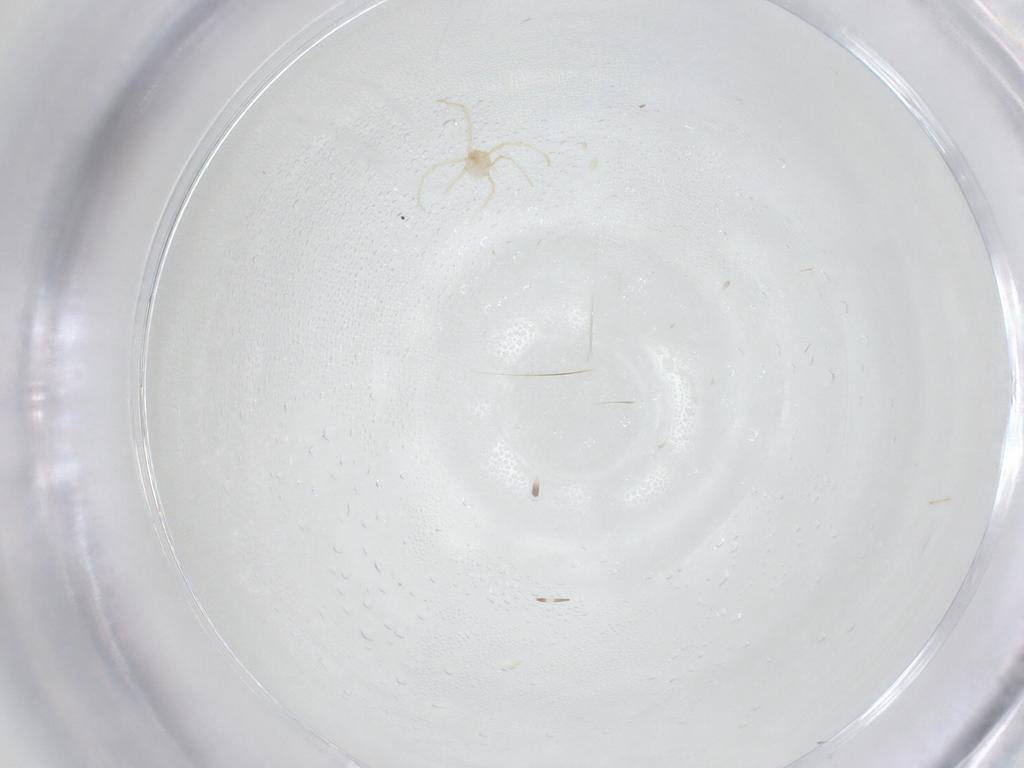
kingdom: Animalia
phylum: Arthropoda
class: Arachnida
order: Trombidiformes
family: Erythraeidae
